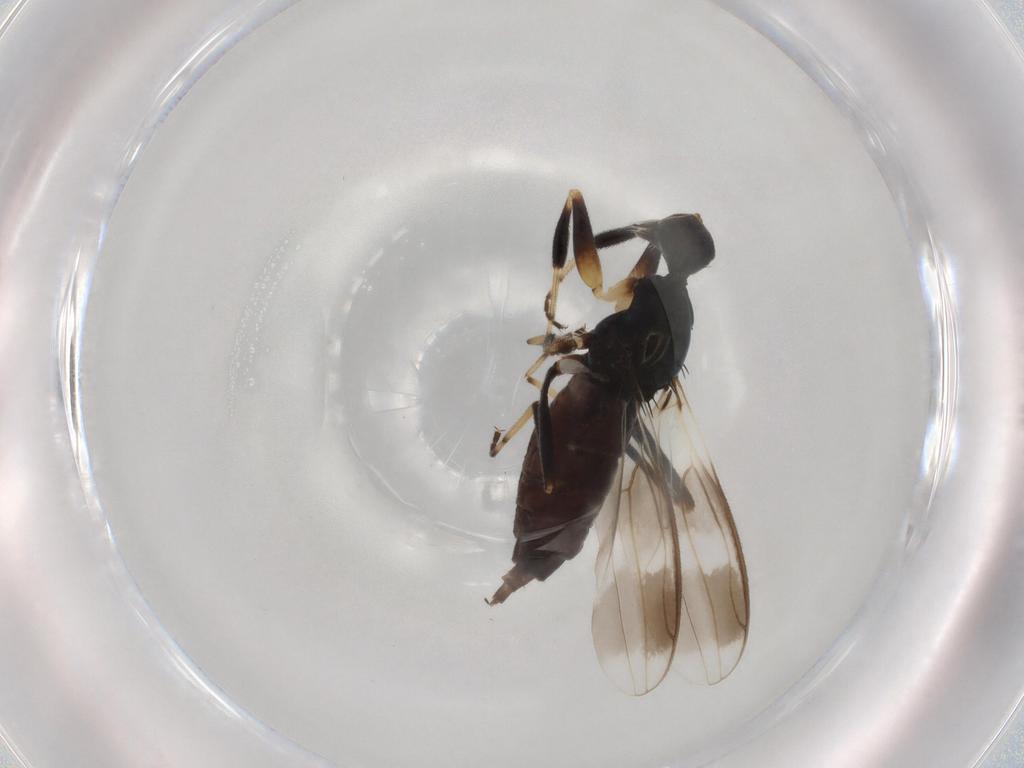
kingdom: Animalia
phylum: Arthropoda
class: Insecta
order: Diptera
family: Hybotidae
